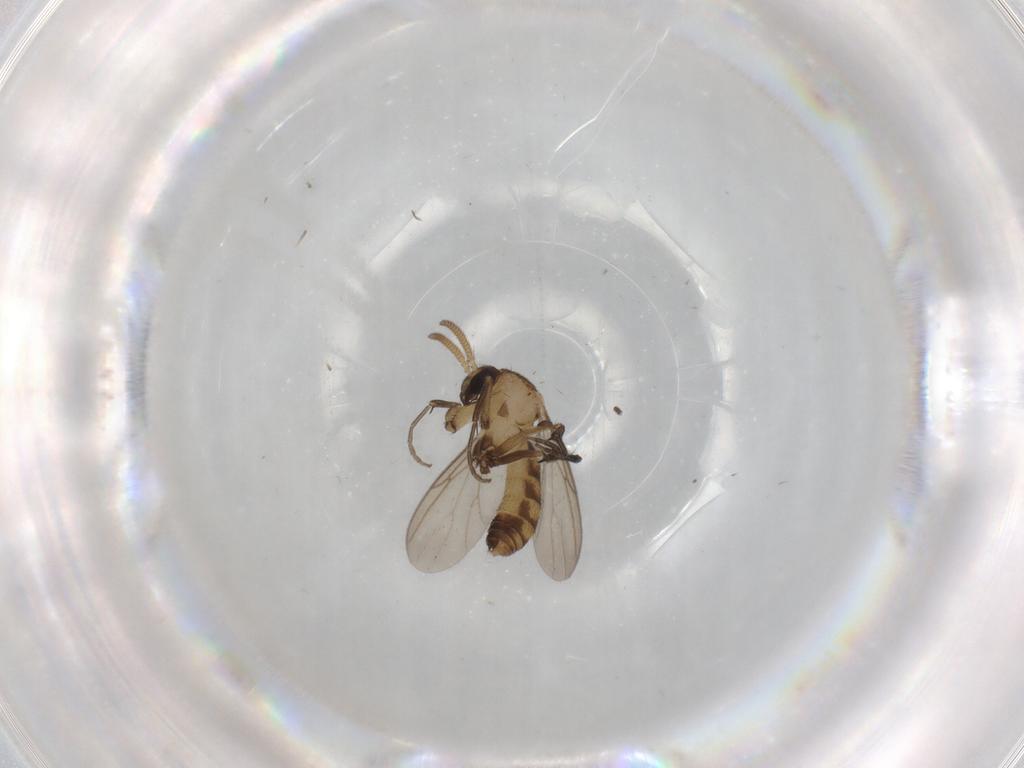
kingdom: Animalia
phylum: Arthropoda
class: Insecta
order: Diptera
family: Mycetophilidae
